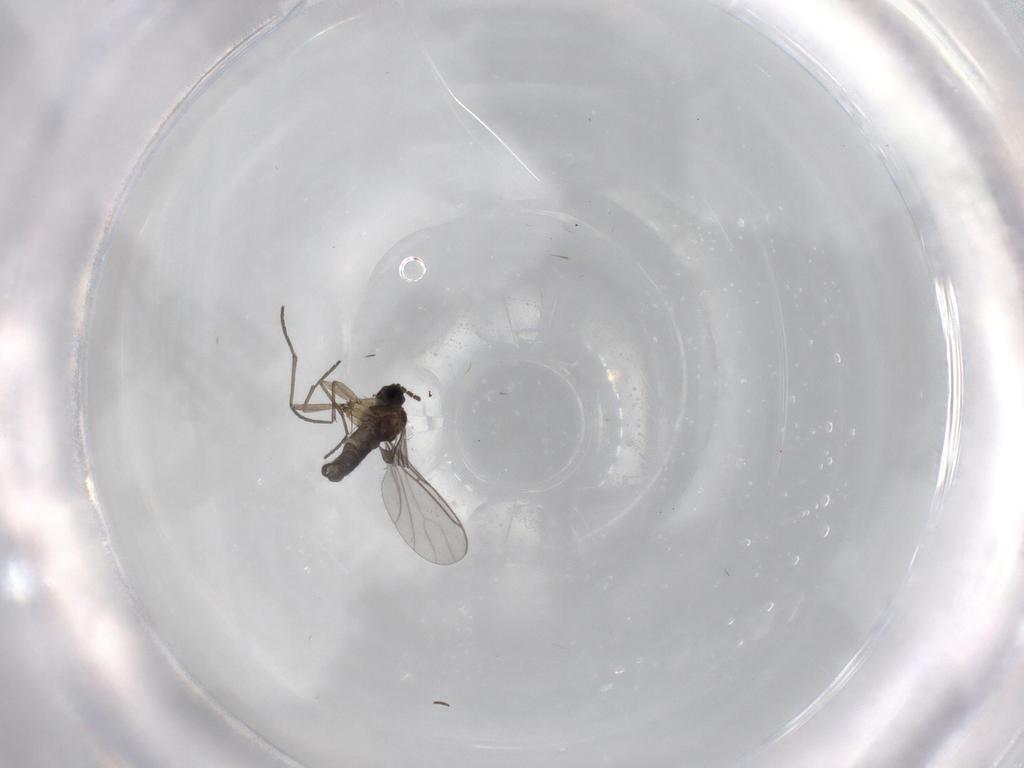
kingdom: Animalia
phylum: Arthropoda
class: Insecta
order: Diptera
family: Sciaridae
